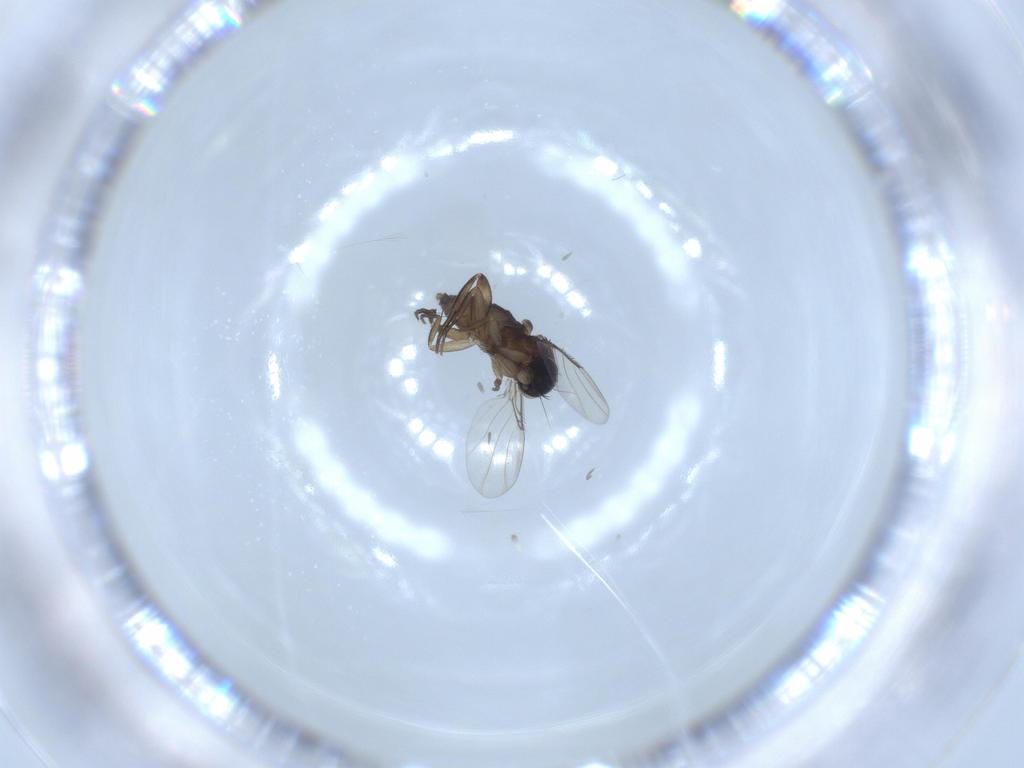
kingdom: Animalia
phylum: Arthropoda
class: Insecta
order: Diptera
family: Phoridae
